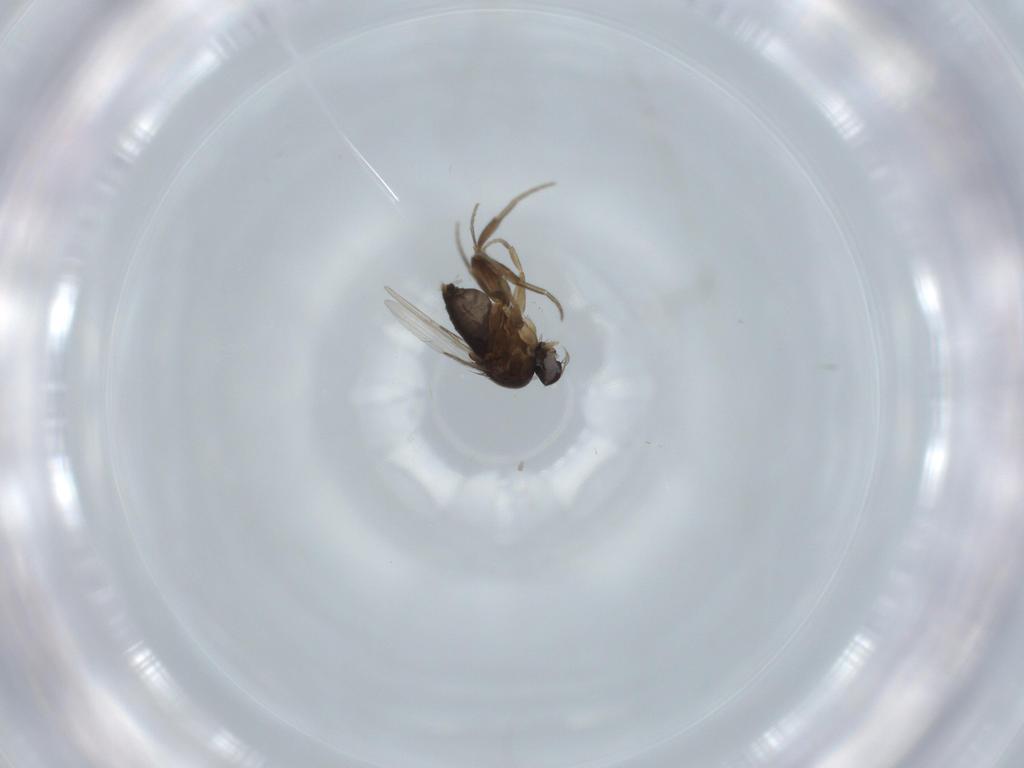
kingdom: Animalia
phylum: Arthropoda
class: Insecta
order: Diptera
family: Phoridae
